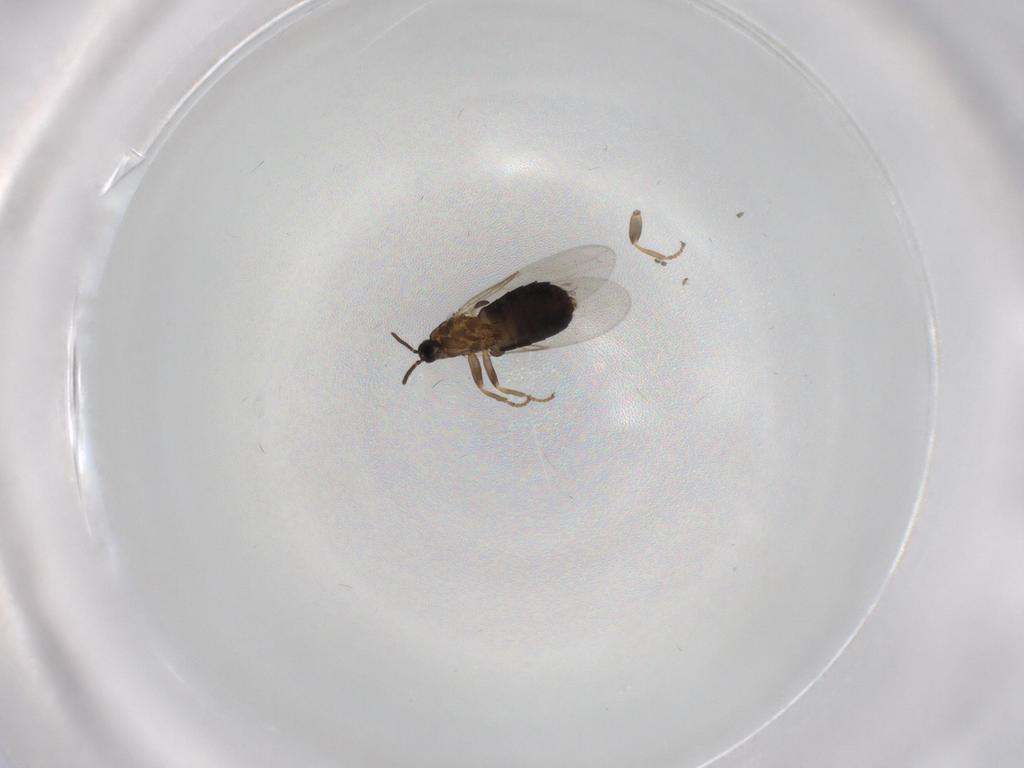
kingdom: Animalia
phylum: Arthropoda
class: Insecta
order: Diptera
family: Scatopsidae
